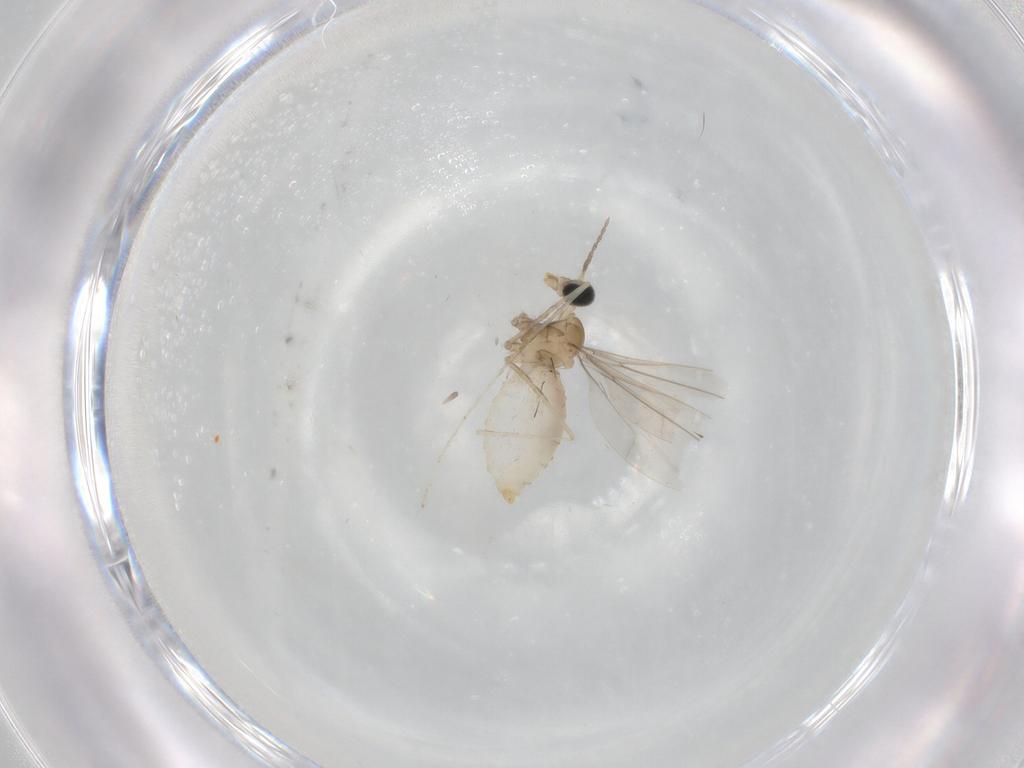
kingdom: Animalia
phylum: Arthropoda
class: Insecta
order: Diptera
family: Cecidomyiidae
